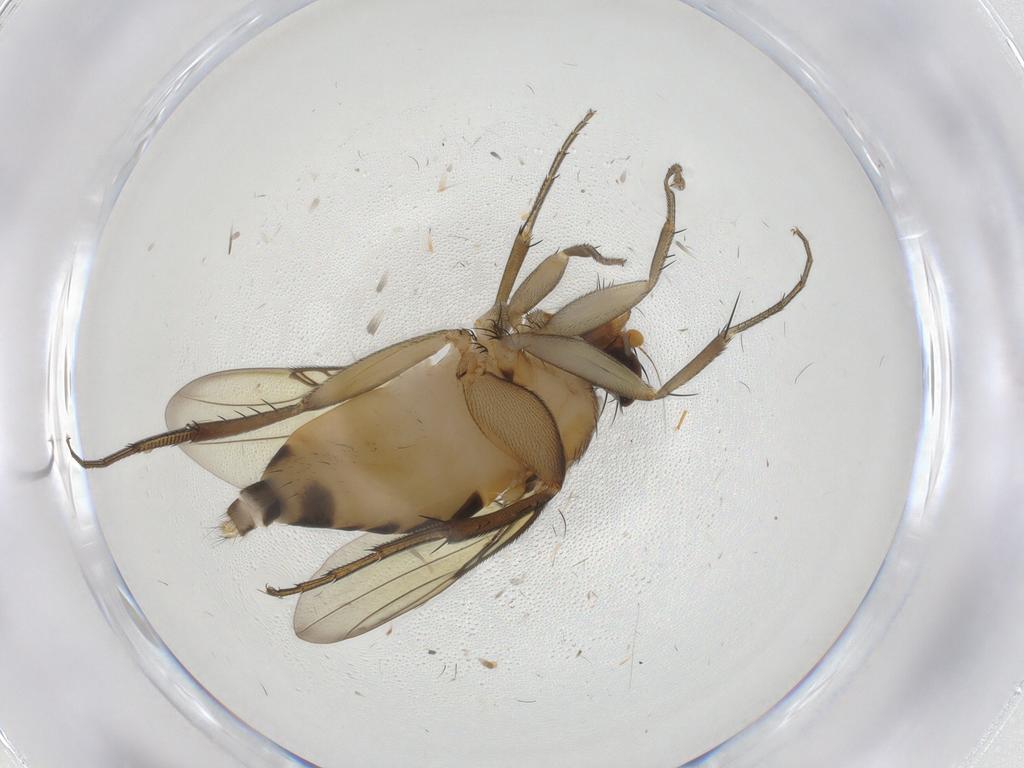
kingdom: Animalia
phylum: Arthropoda
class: Insecta
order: Diptera
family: Phoridae
